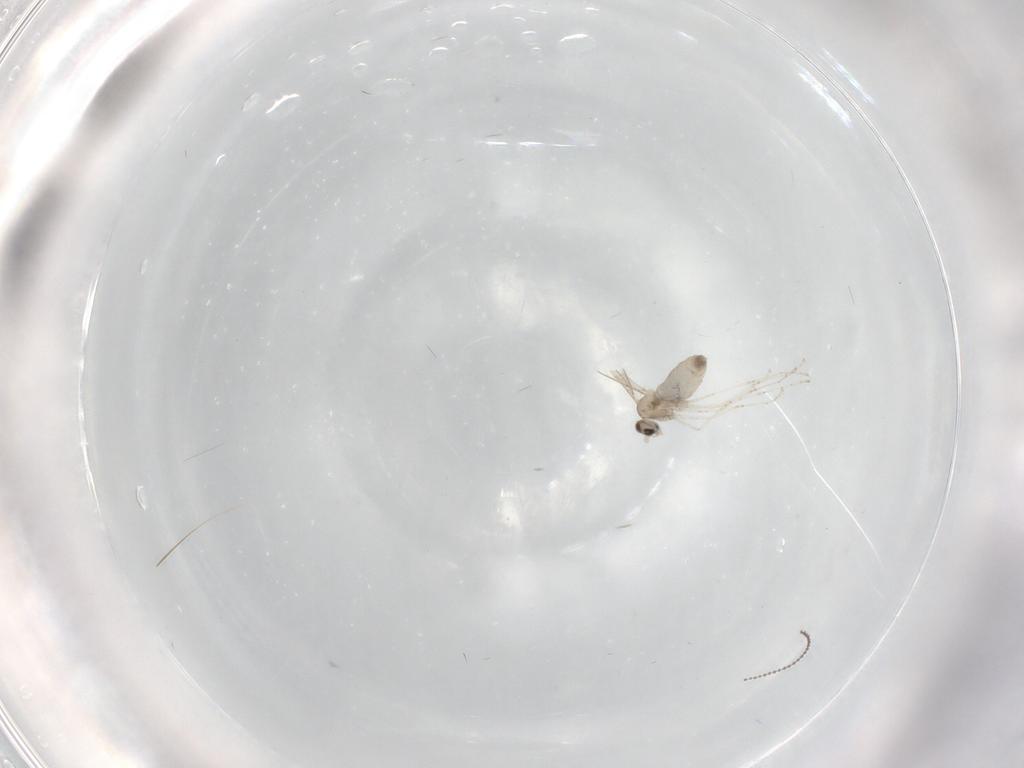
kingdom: Animalia
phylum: Arthropoda
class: Insecta
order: Diptera
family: Cecidomyiidae
